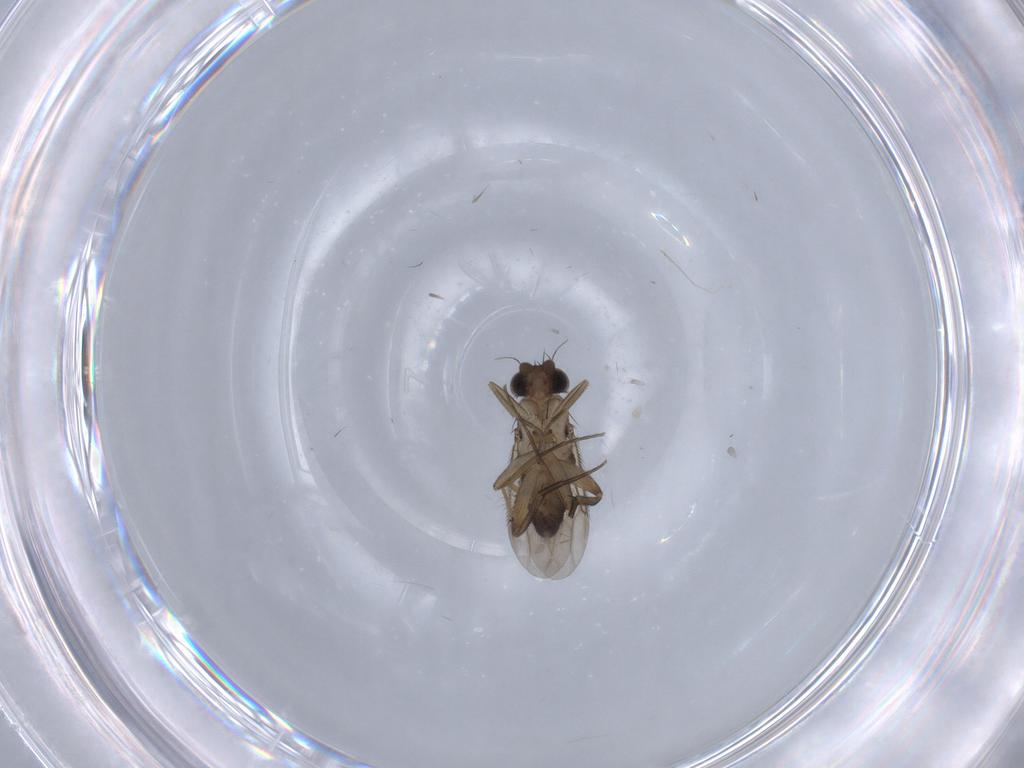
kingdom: Animalia
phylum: Arthropoda
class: Insecta
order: Diptera
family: Phoridae
